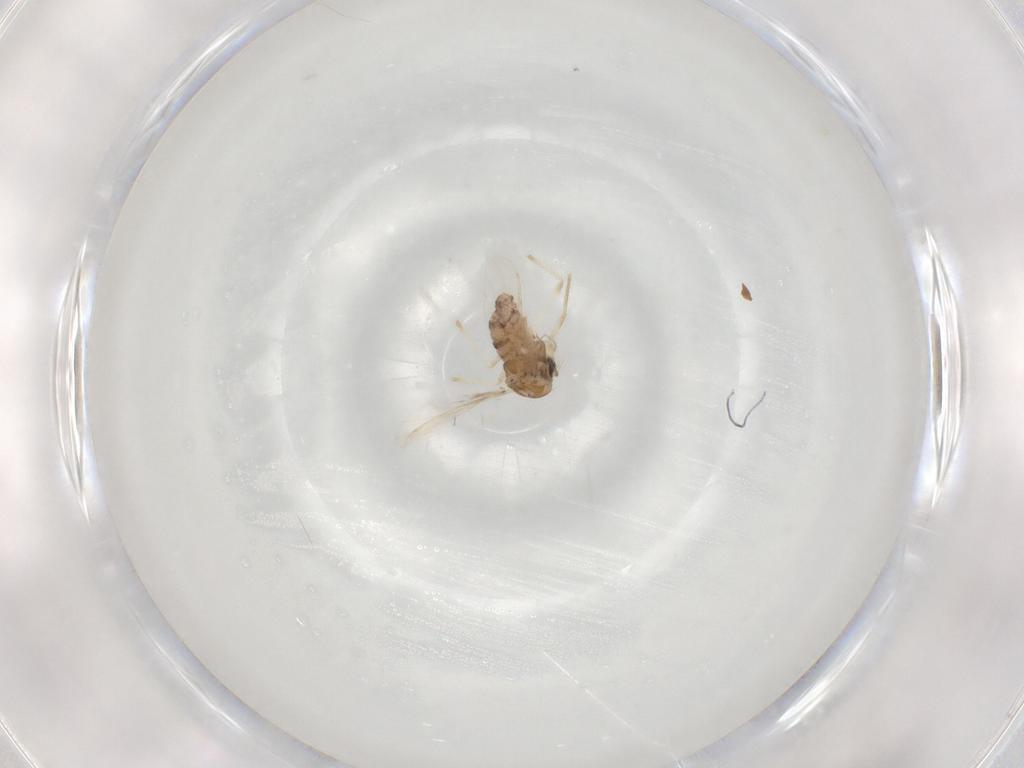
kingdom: Animalia
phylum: Arthropoda
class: Insecta
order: Diptera
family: Chironomidae
